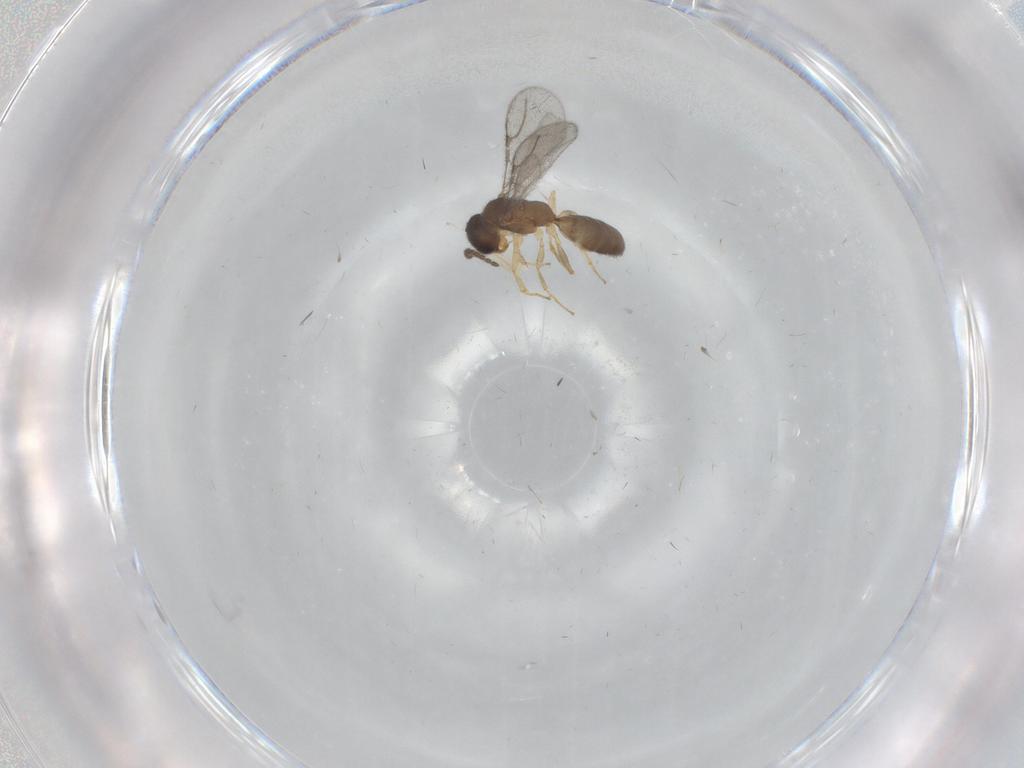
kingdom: Animalia
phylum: Arthropoda
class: Insecta
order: Hymenoptera
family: Bethylidae
